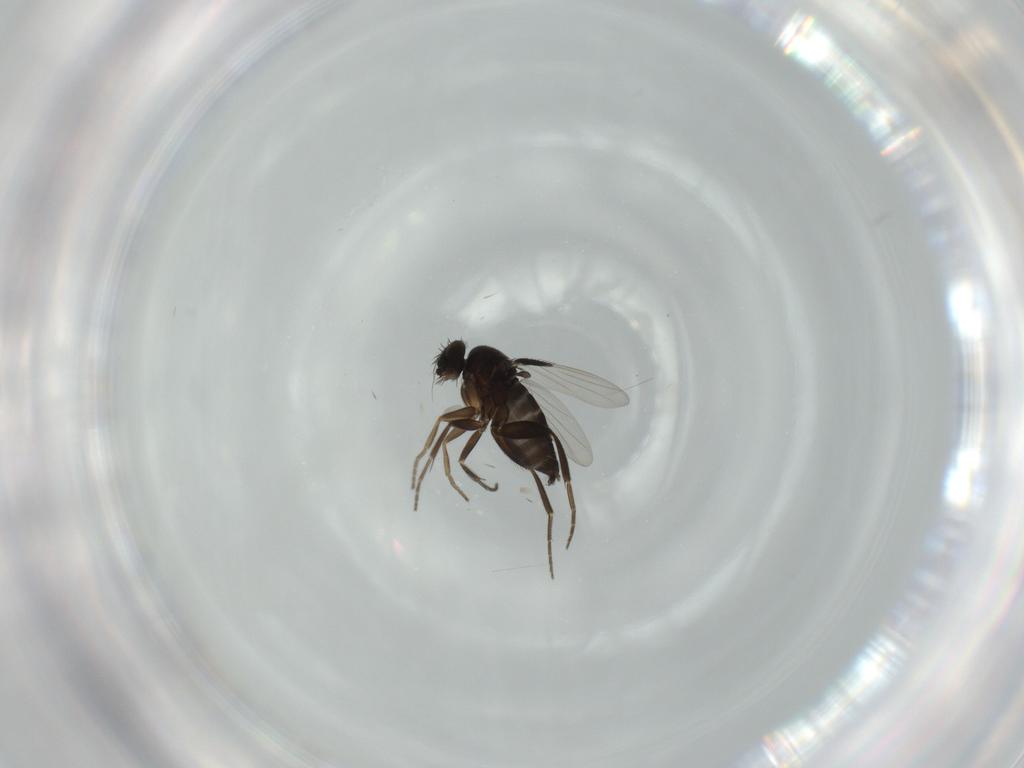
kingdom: Animalia
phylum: Arthropoda
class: Insecta
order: Diptera
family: Phoridae
